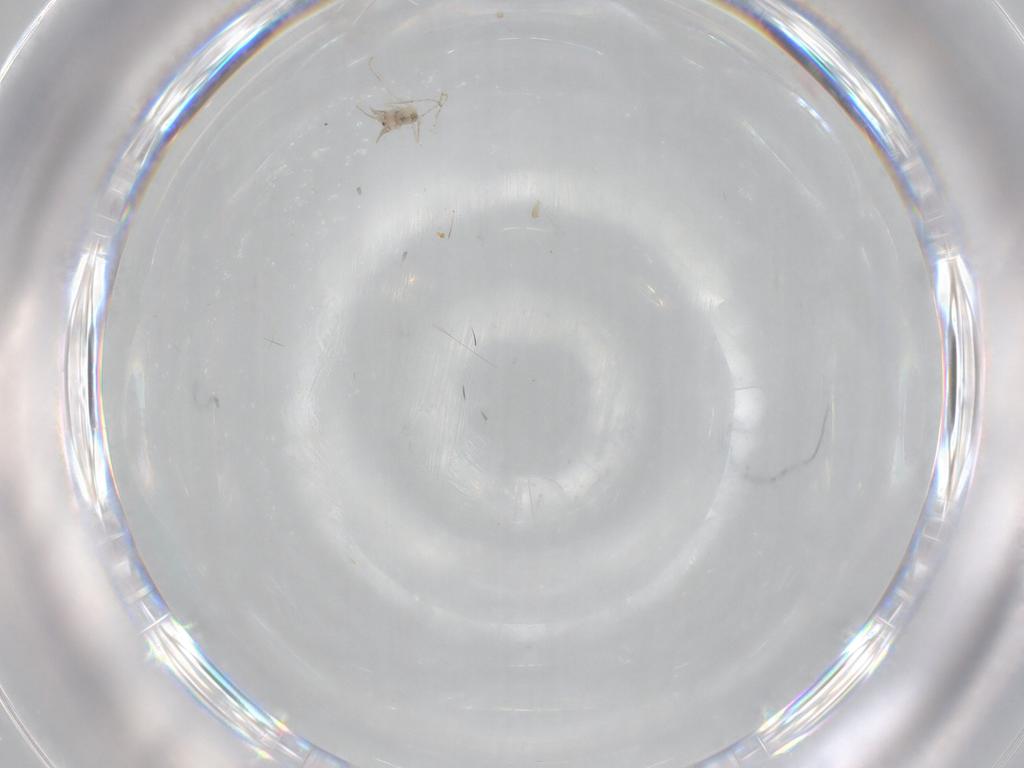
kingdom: Animalia
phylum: Arthropoda
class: Insecta
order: Diptera
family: Cecidomyiidae
